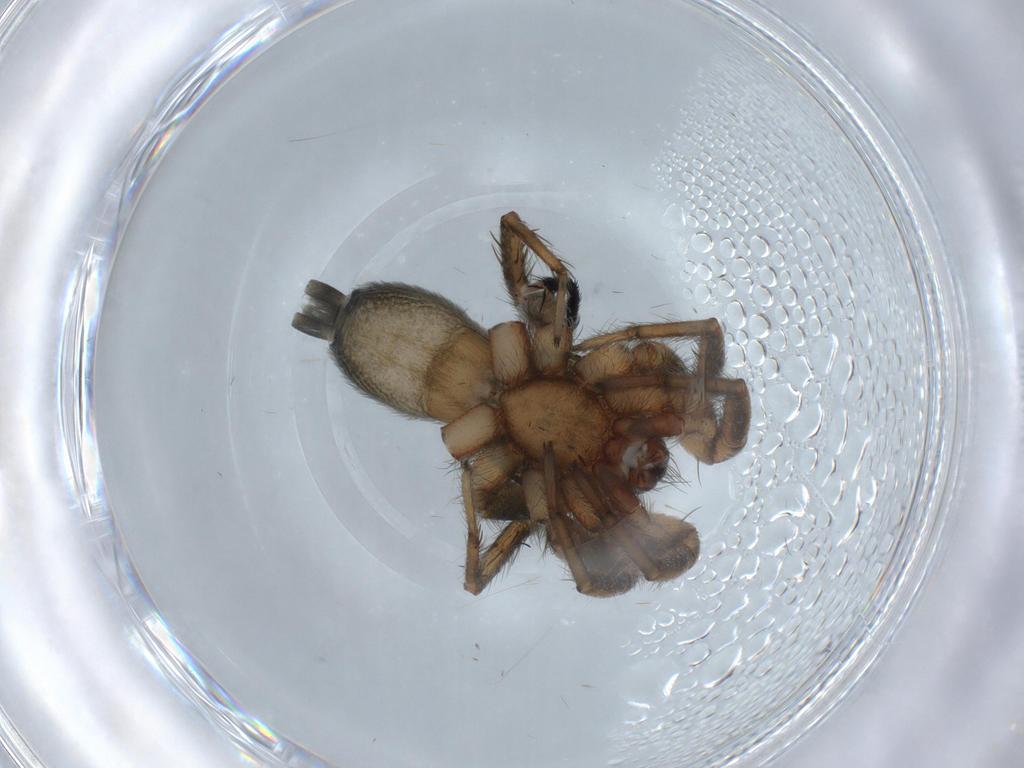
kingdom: Animalia
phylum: Arthropoda
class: Arachnida
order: Araneae
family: Gnaphosidae
